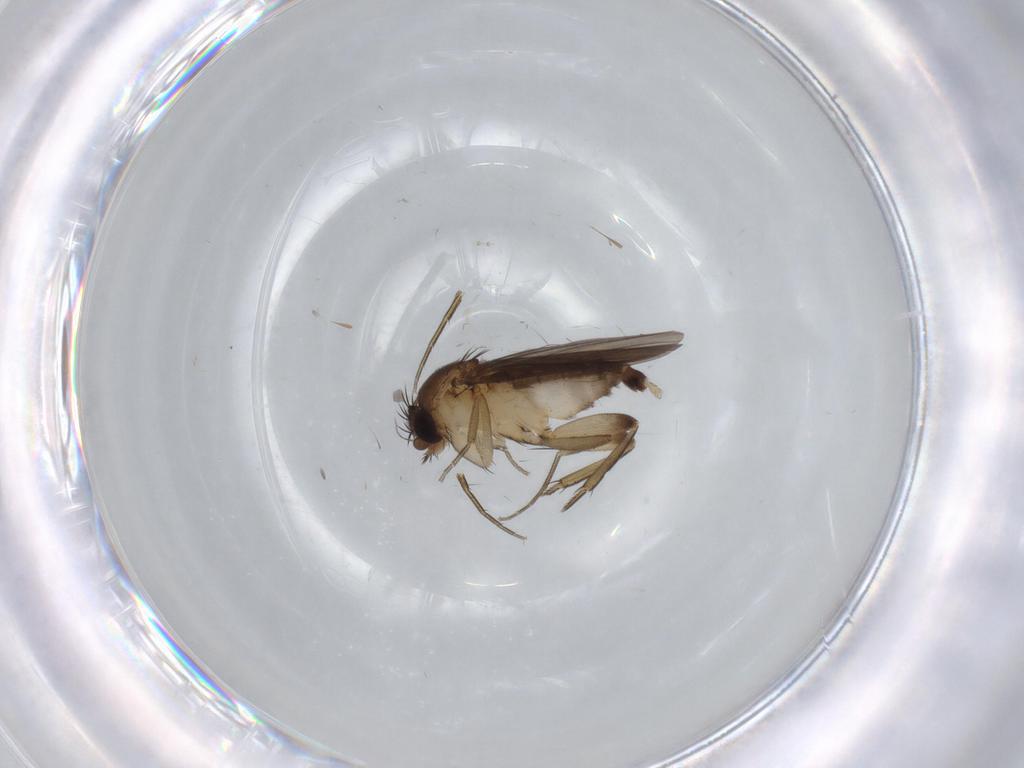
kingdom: Animalia
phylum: Arthropoda
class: Insecta
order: Diptera
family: Phoridae
